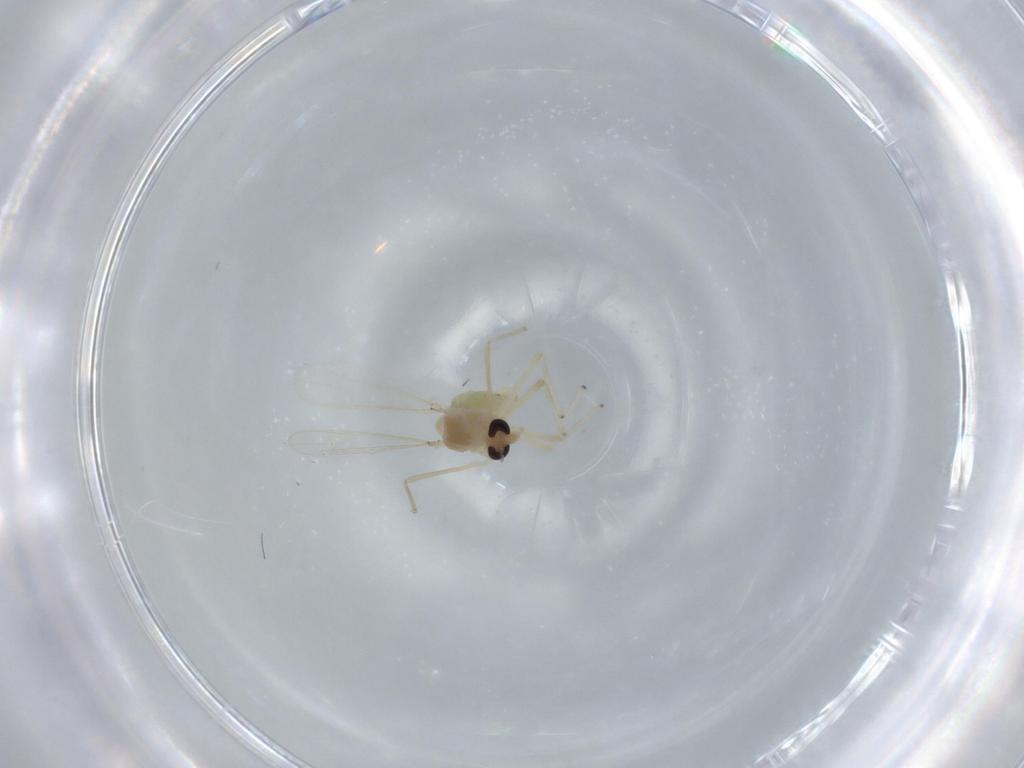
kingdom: Animalia
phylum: Arthropoda
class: Insecta
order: Diptera
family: Chironomidae
